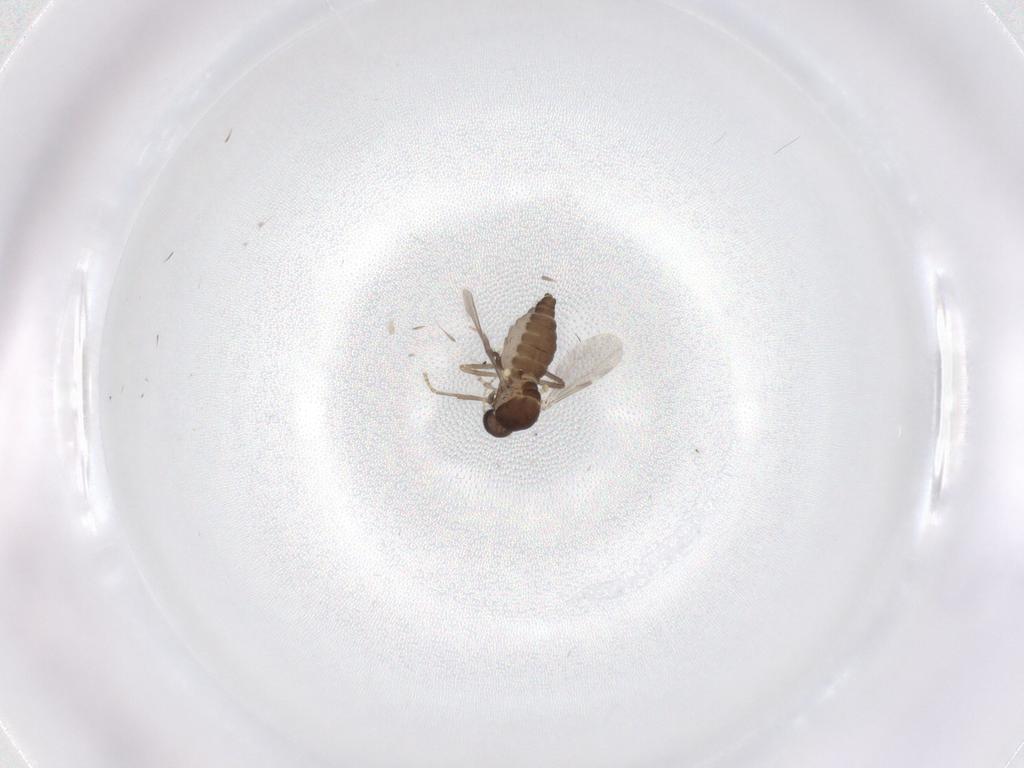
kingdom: Animalia
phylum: Arthropoda
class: Insecta
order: Diptera
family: Ceratopogonidae
